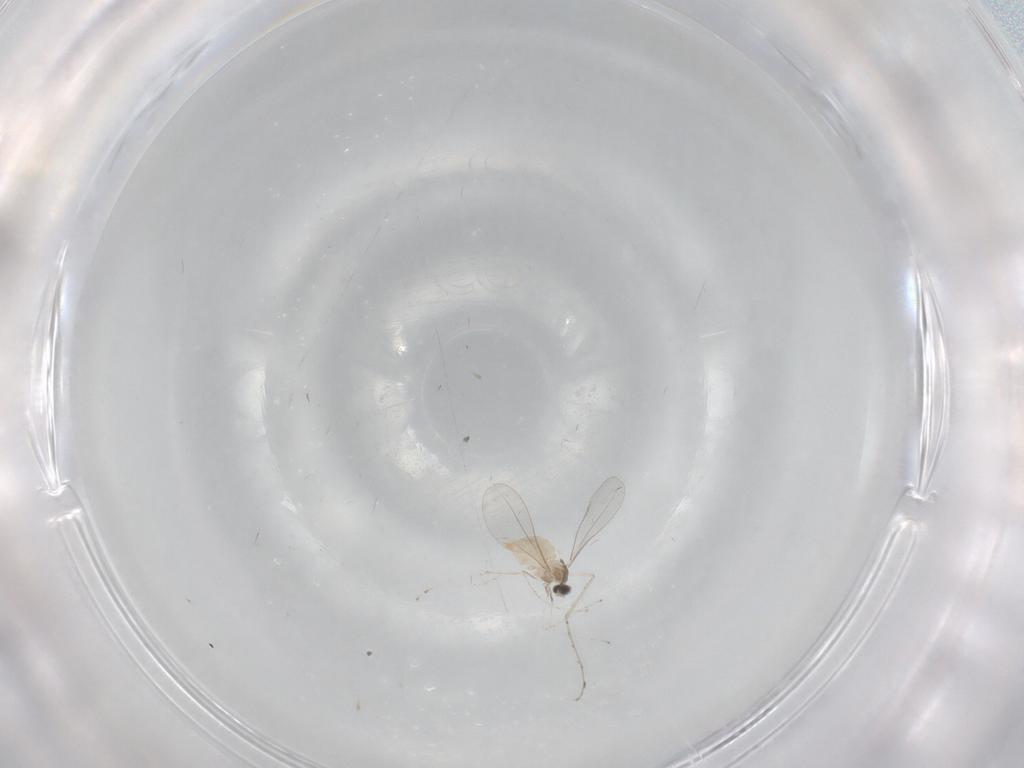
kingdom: Animalia
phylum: Arthropoda
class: Insecta
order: Diptera
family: Cecidomyiidae
